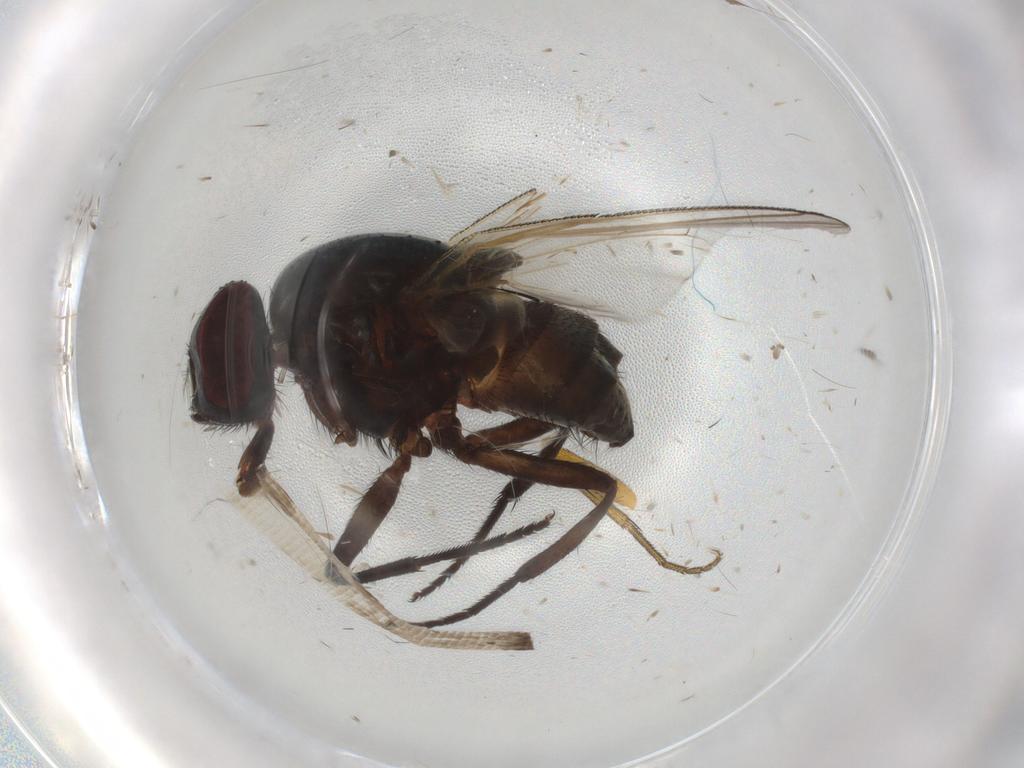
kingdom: Animalia
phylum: Arthropoda
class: Insecta
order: Diptera
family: Muscidae
